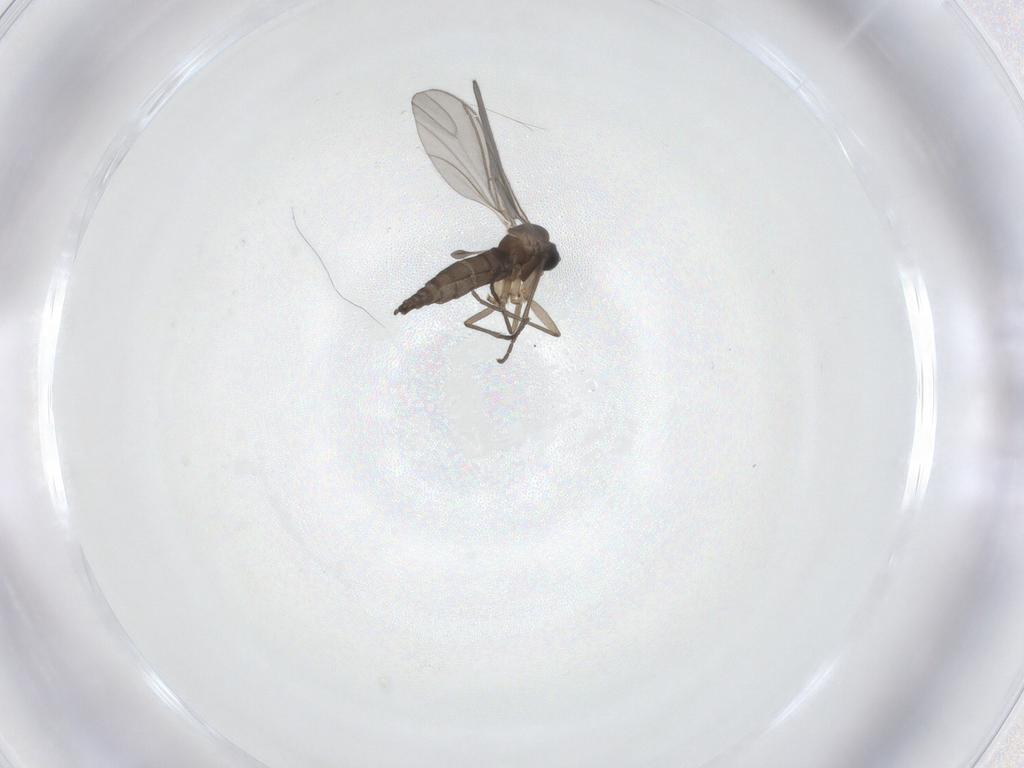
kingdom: Animalia
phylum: Arthropoda
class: Insecta
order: Diptera
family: Sciaridae
